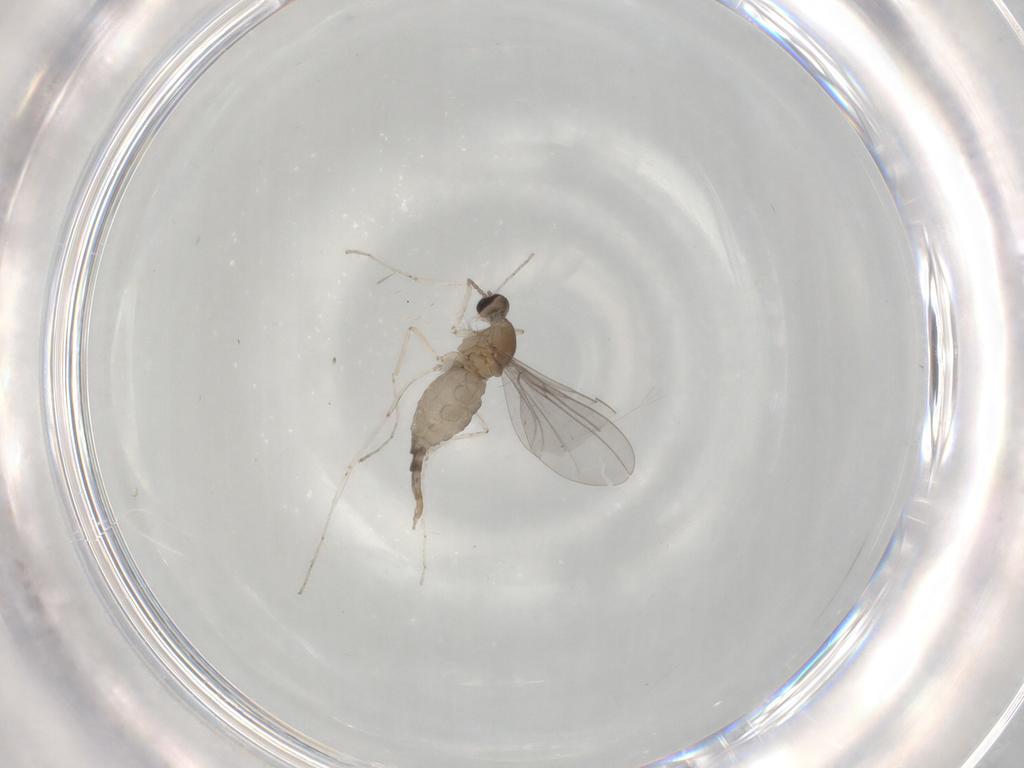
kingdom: Animalia
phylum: Arthropoda
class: Insecta
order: Diptera
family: Cecidomyiidae
